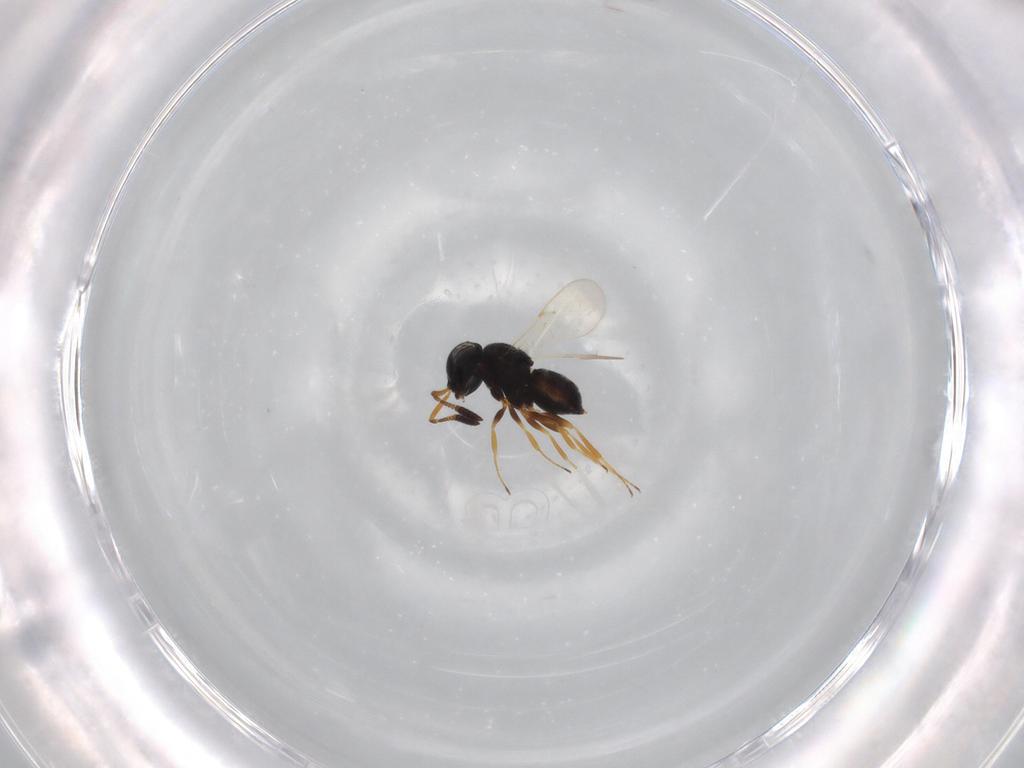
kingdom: Animalia
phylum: Arthropoda
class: Insecta
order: Hymenoptera
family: Scelionidae
